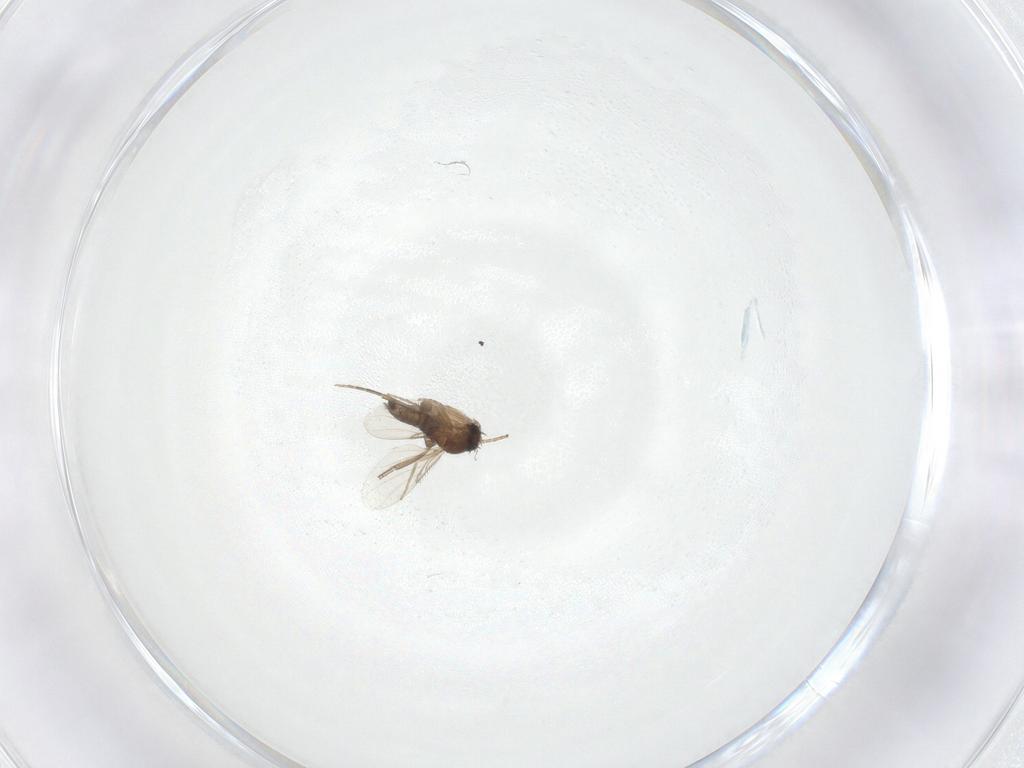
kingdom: Animalia
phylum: Arthropoda
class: Insecta
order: Diptera
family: Phoridae
